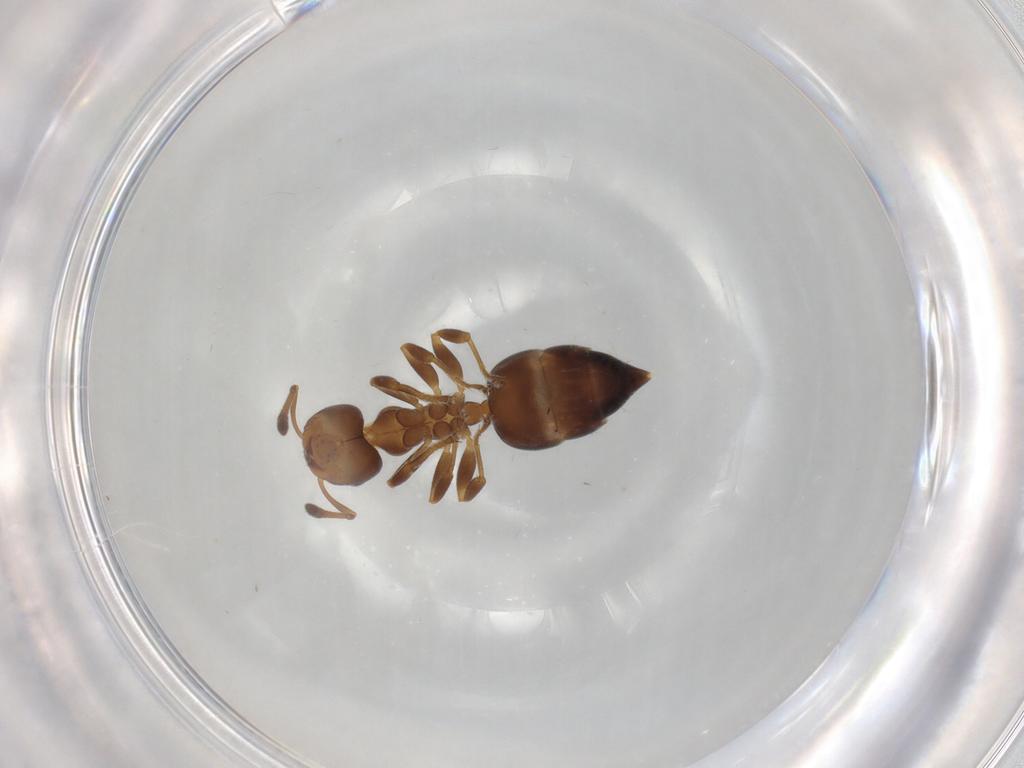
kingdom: Animalia
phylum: Arthropoda
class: Insecta
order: Hymenoptera
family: Formicidae
